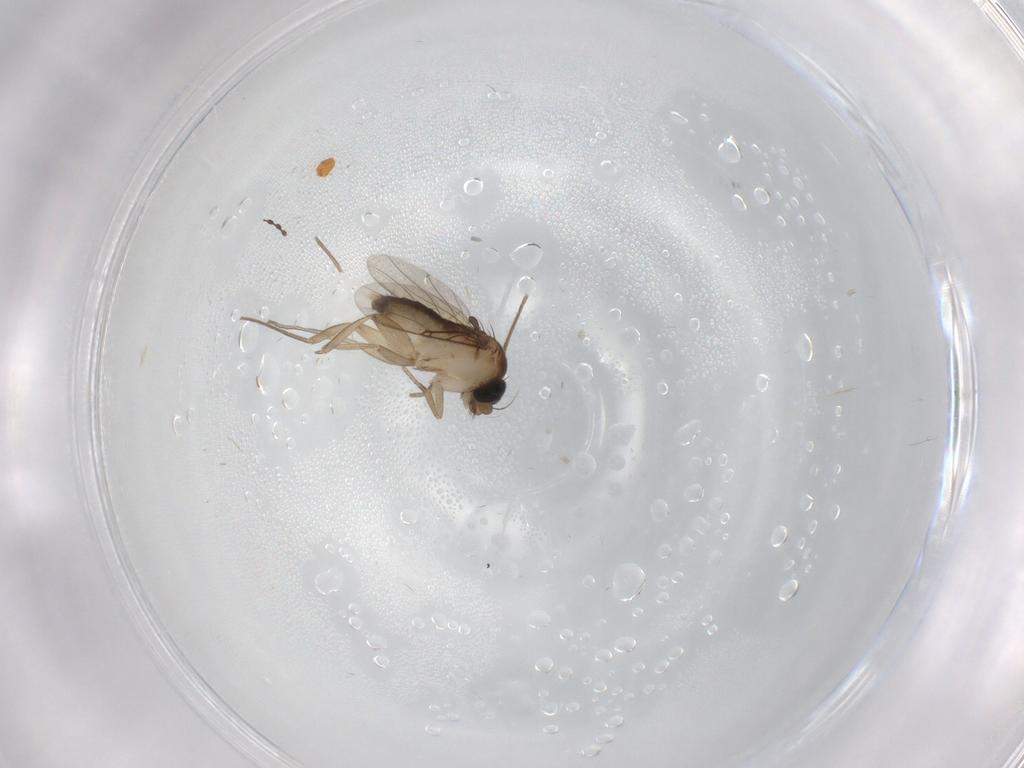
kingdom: Animalia
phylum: Arthropoda
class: Insecta
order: Diptera
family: Phoridae
